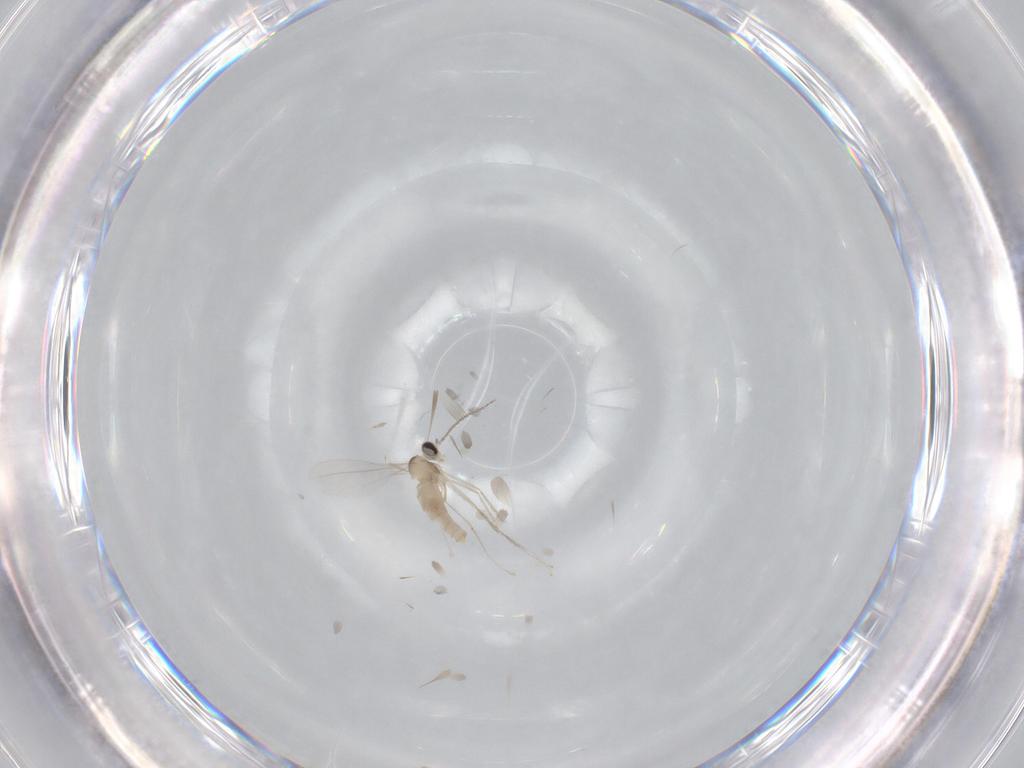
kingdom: Animalia
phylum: Arthropoda
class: Insecta
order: Diptera
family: Cecidomyiidae
